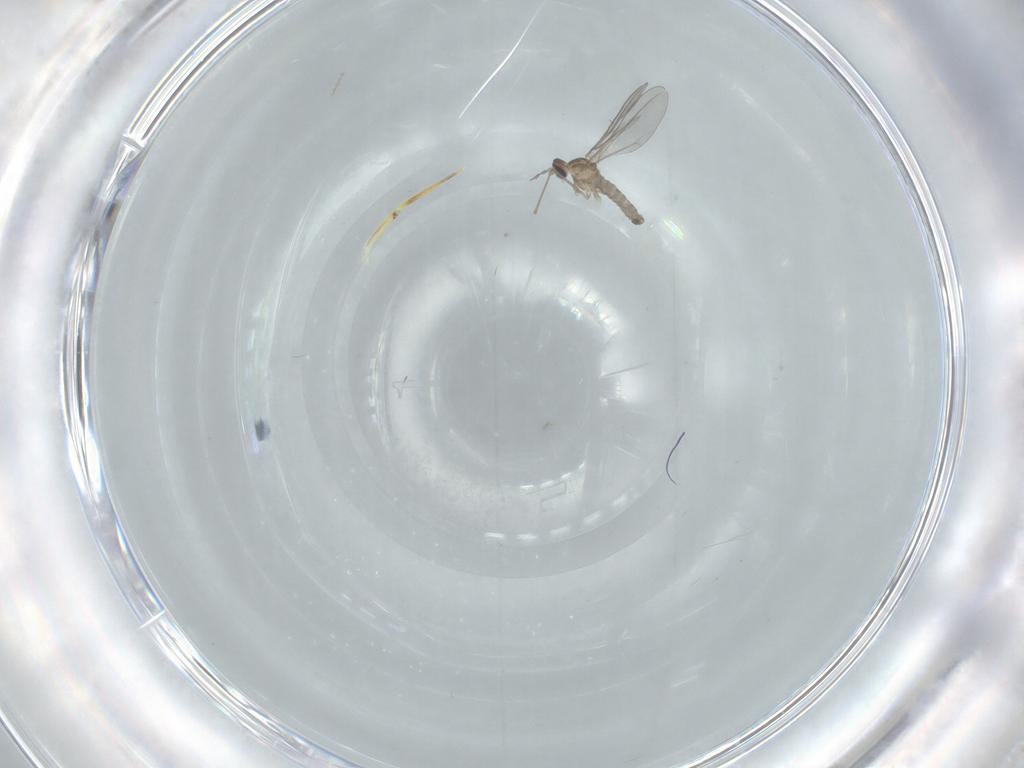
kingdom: Animalia
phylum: Arthropoda
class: Insecta
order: Diptera
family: Cecidomyiidae
